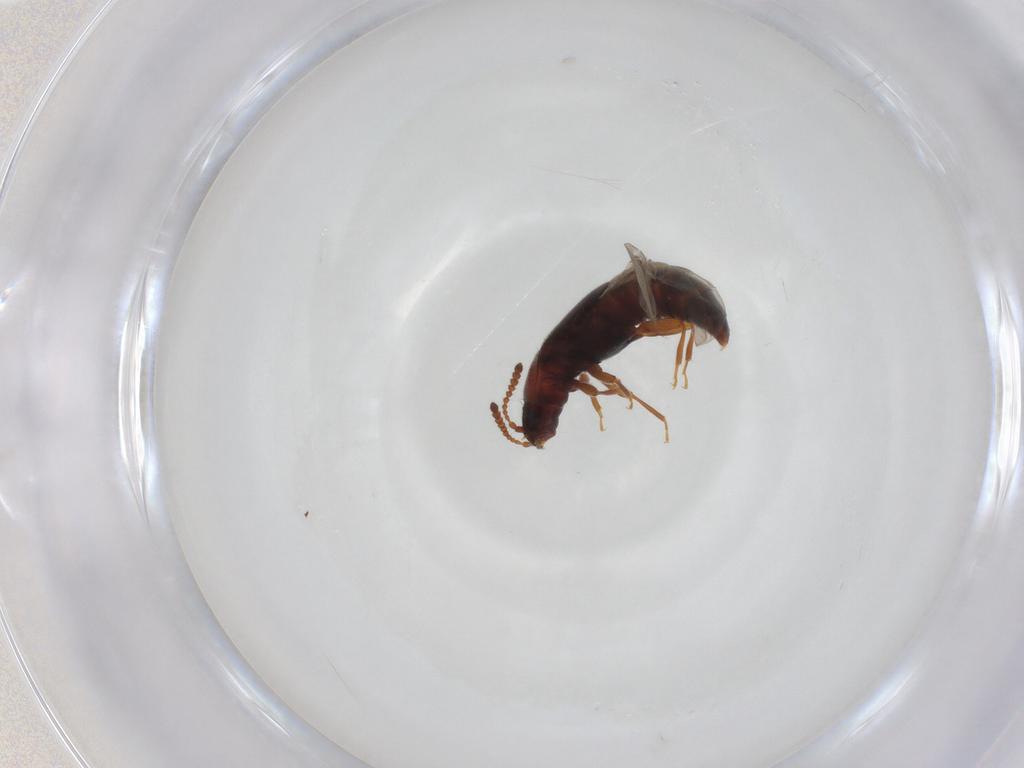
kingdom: Animalia
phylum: Arthropoda
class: Insecta
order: Coleoptera
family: Staphylinidae
